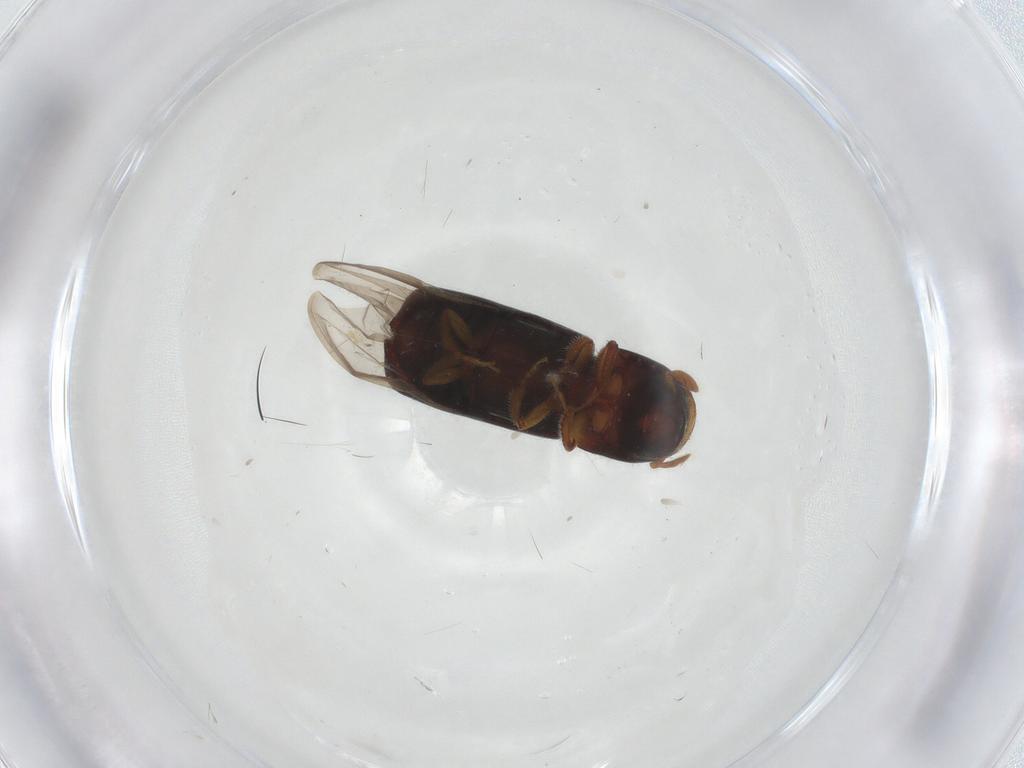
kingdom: Animalia
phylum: Arthropoda
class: Insecta
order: Coleoptera
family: Curculionidae
